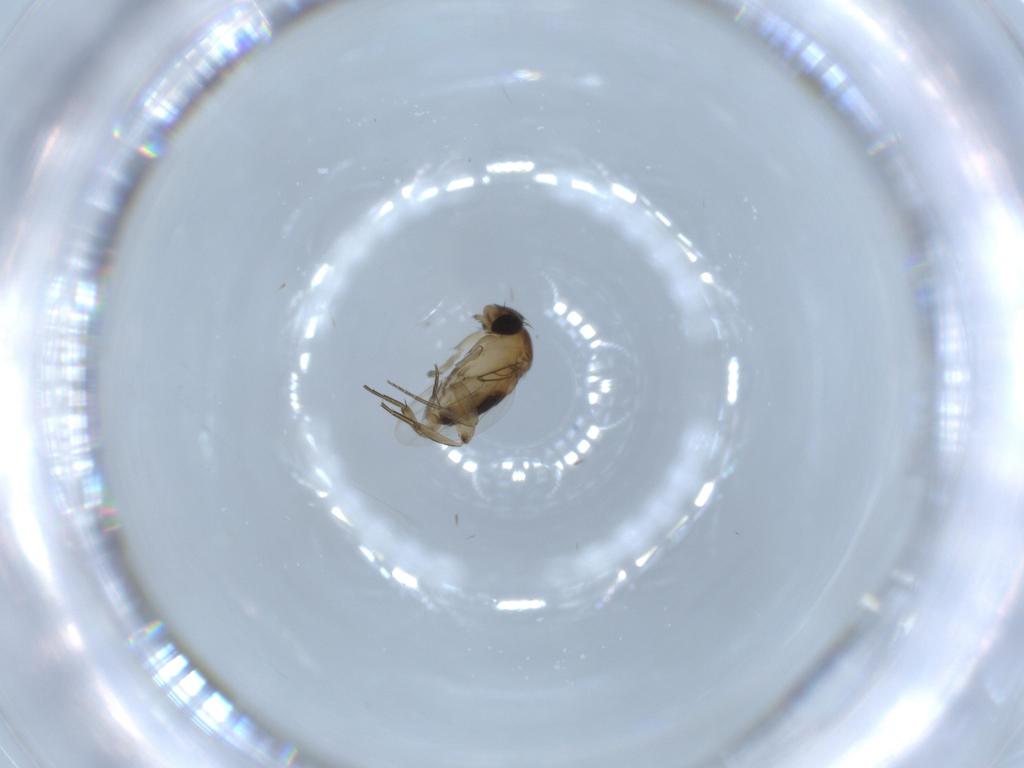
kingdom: Animalia
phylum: Arthropoda
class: Insecta
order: Diptera
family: Phoridae
